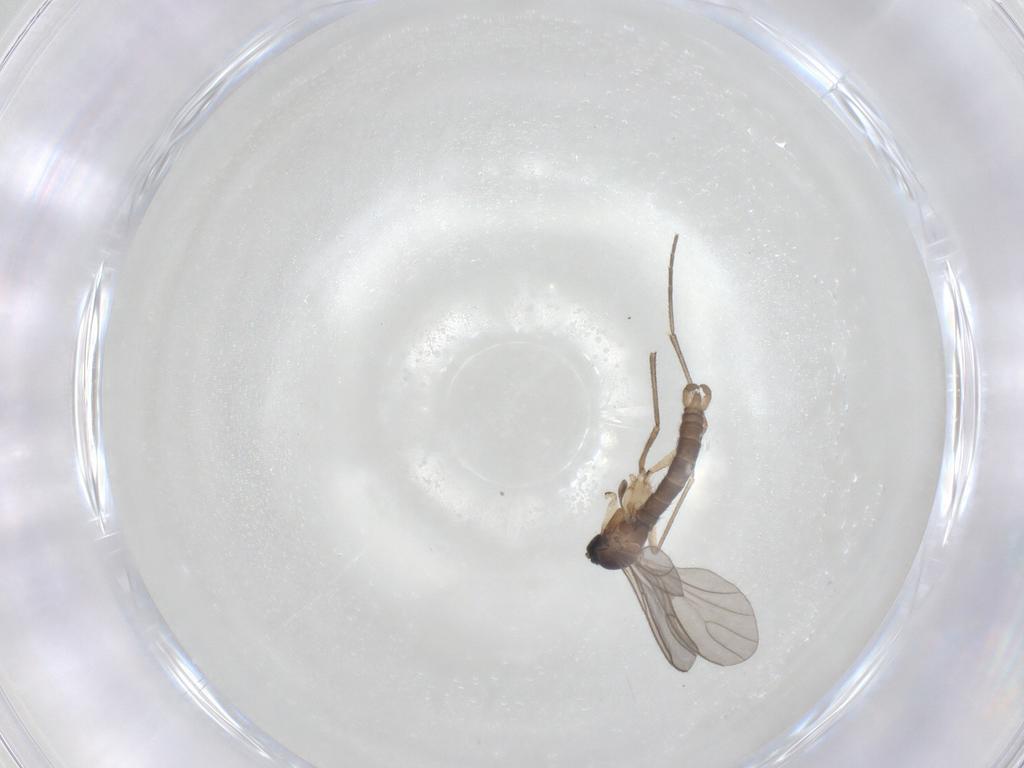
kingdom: Animalia
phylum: Arthropoda
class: Insecta
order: Diptera
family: Sciaridae
